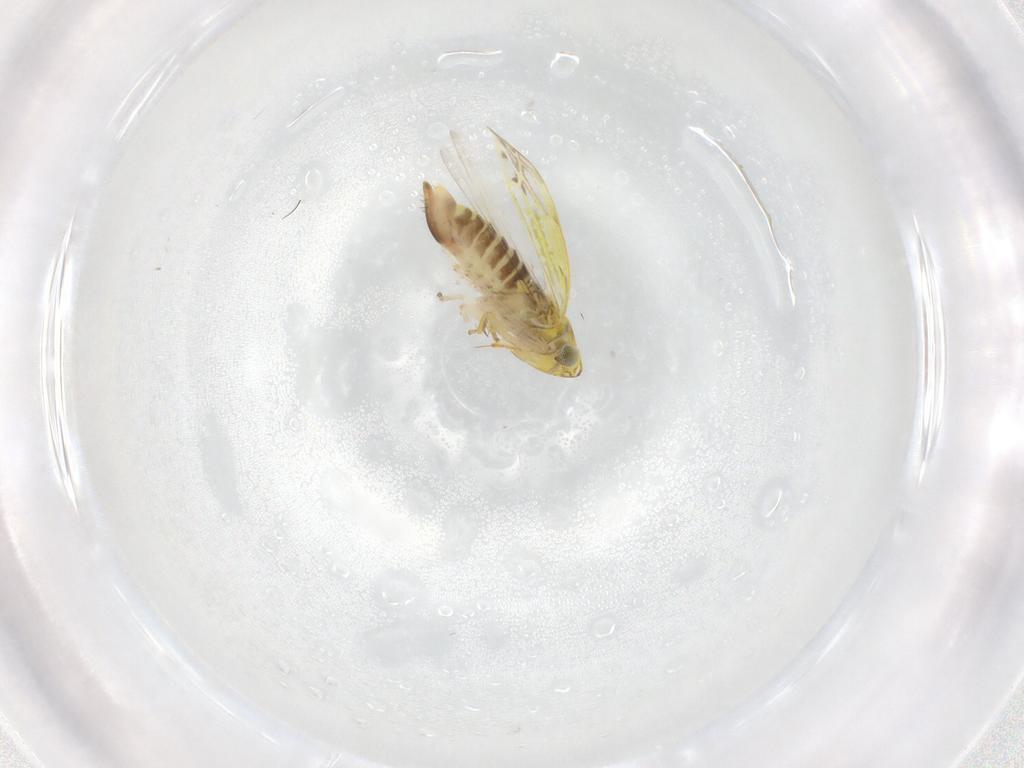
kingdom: Animalia
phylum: Arthropoda
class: Insecta
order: Hemiptera
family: Cicadellidae
